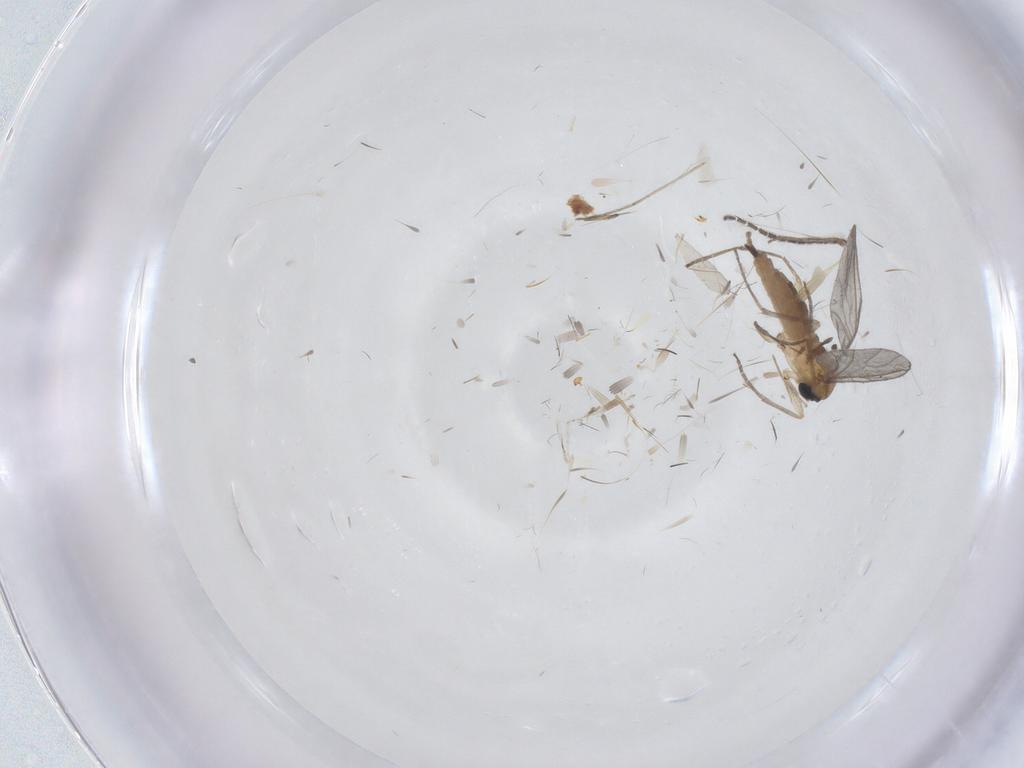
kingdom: Animalia
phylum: Arthropoda
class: Insecta
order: Diptera
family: Sciaridae
